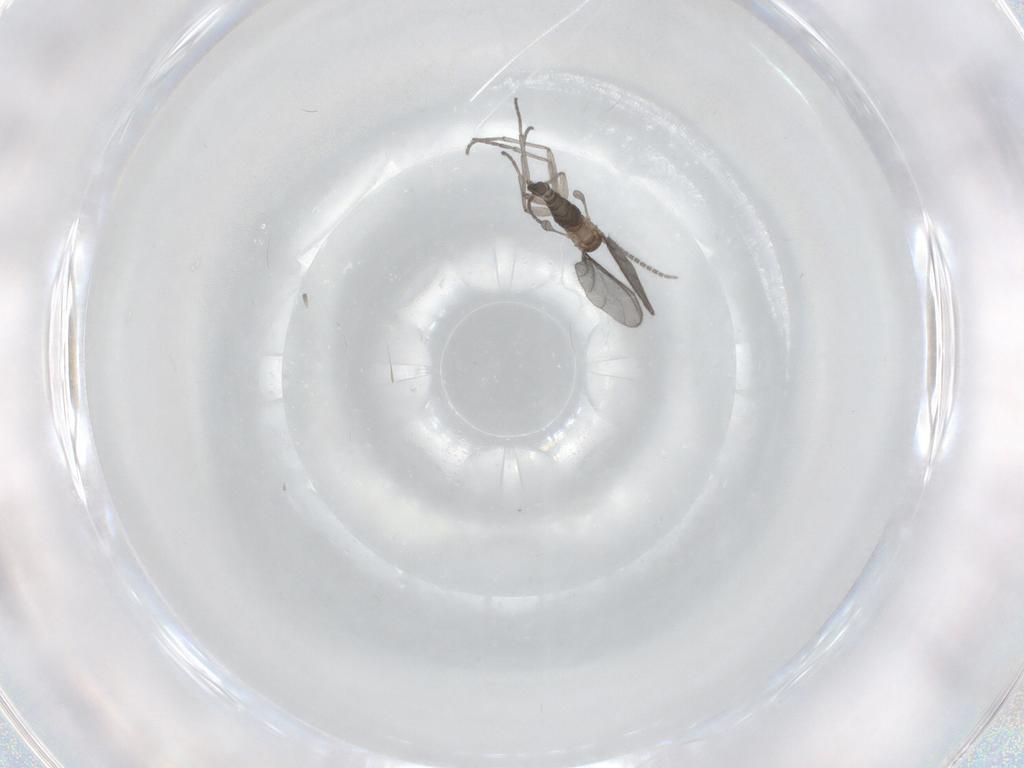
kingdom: Animalia
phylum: Arthropoda
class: Insecta
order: Diptera
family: Sciaridae
